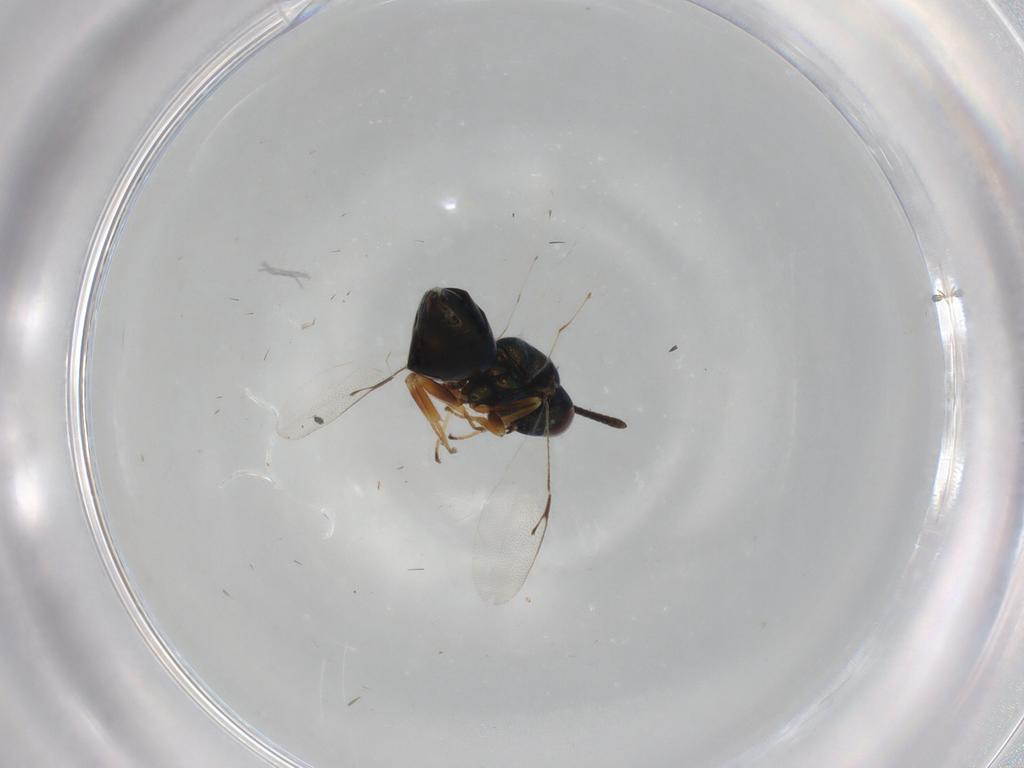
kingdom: Animalia
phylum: Arthropoda
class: Insecta
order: Hymenoptera
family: Pteromalidae
